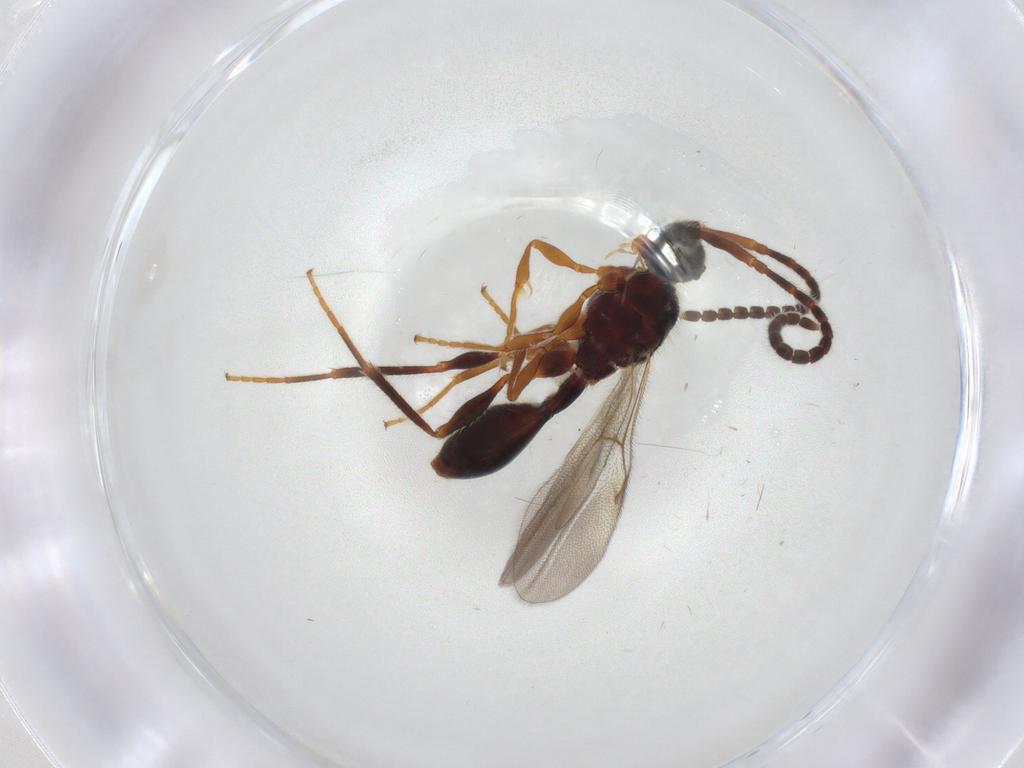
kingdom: Animalia
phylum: Arthropoda
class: Insecta
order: Hymenoptera
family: Diapriidae
